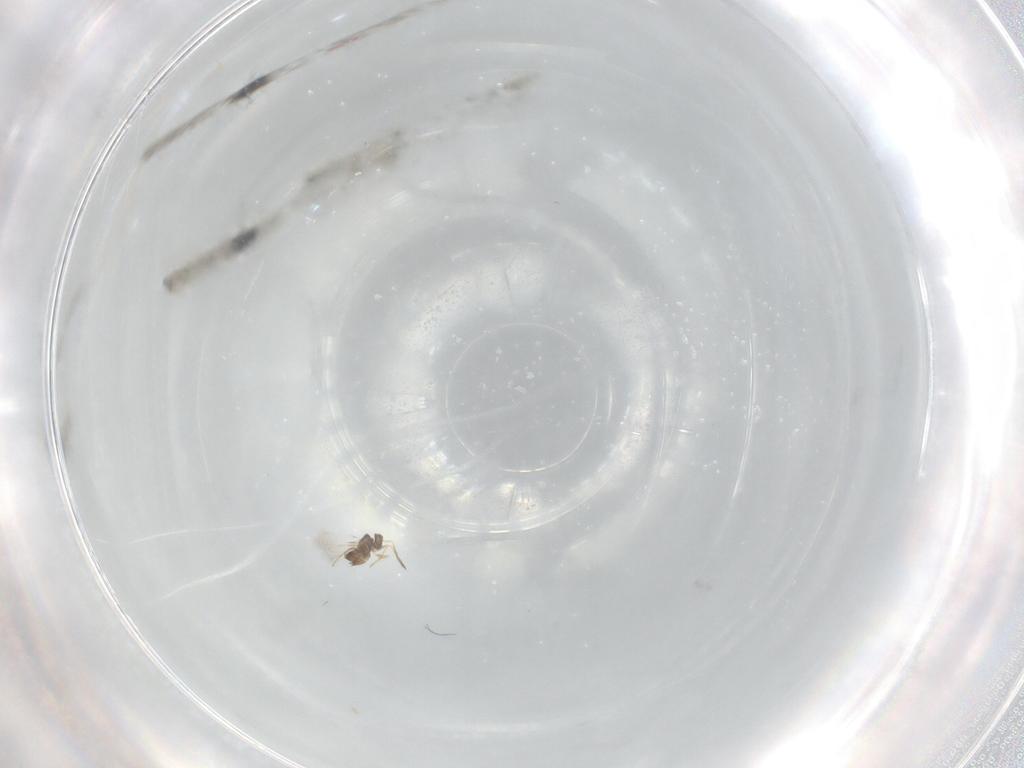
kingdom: Animalia
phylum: Arthropoda
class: Insecta
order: Hymenoptera
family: Mymaridae
